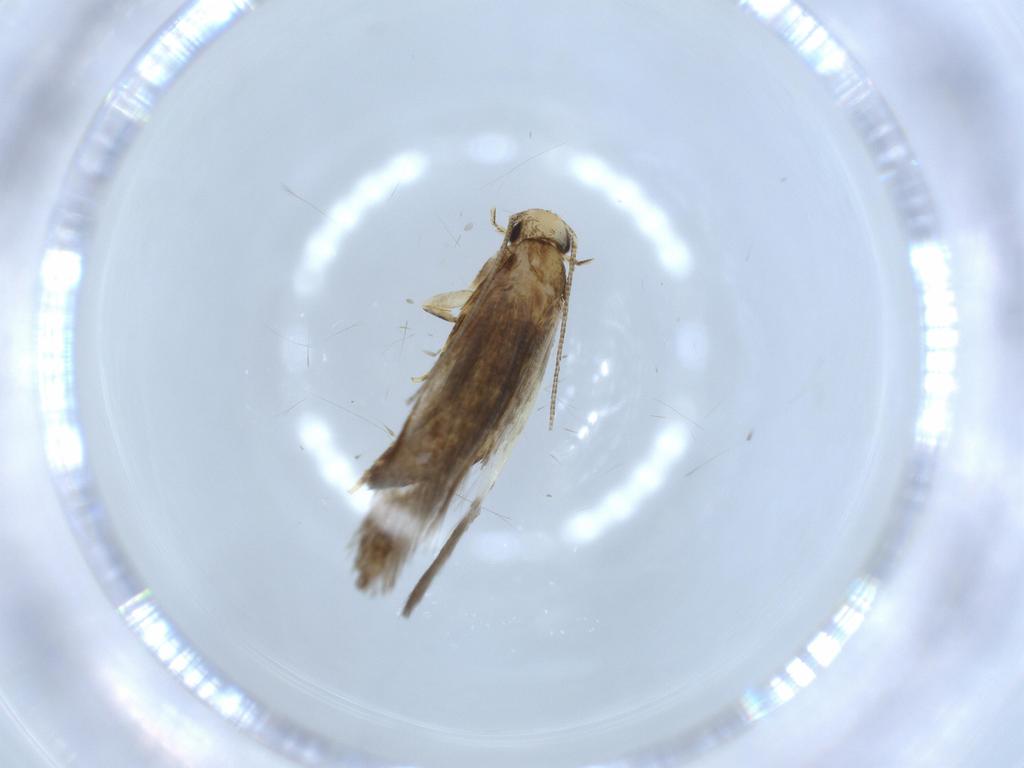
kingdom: Animalia
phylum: Arthropoda
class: Insecta
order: Lepidoptera
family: Tineidae
